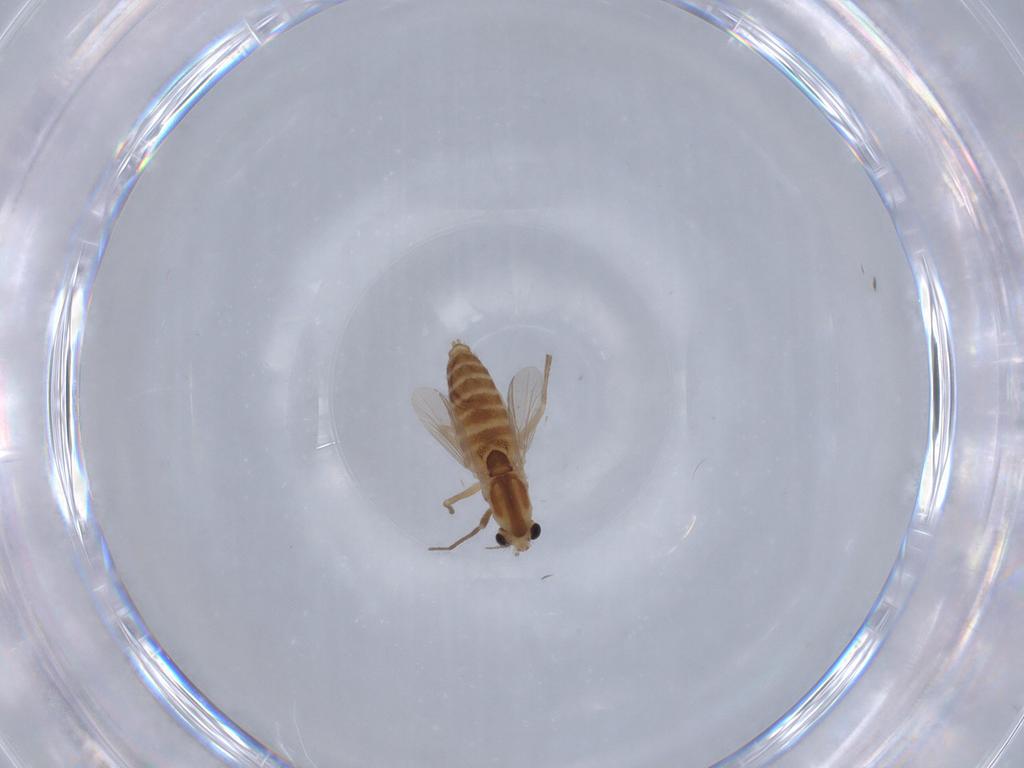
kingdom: Animalia
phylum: Arthropoda
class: Insecta
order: Diptera
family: Chironomidae
